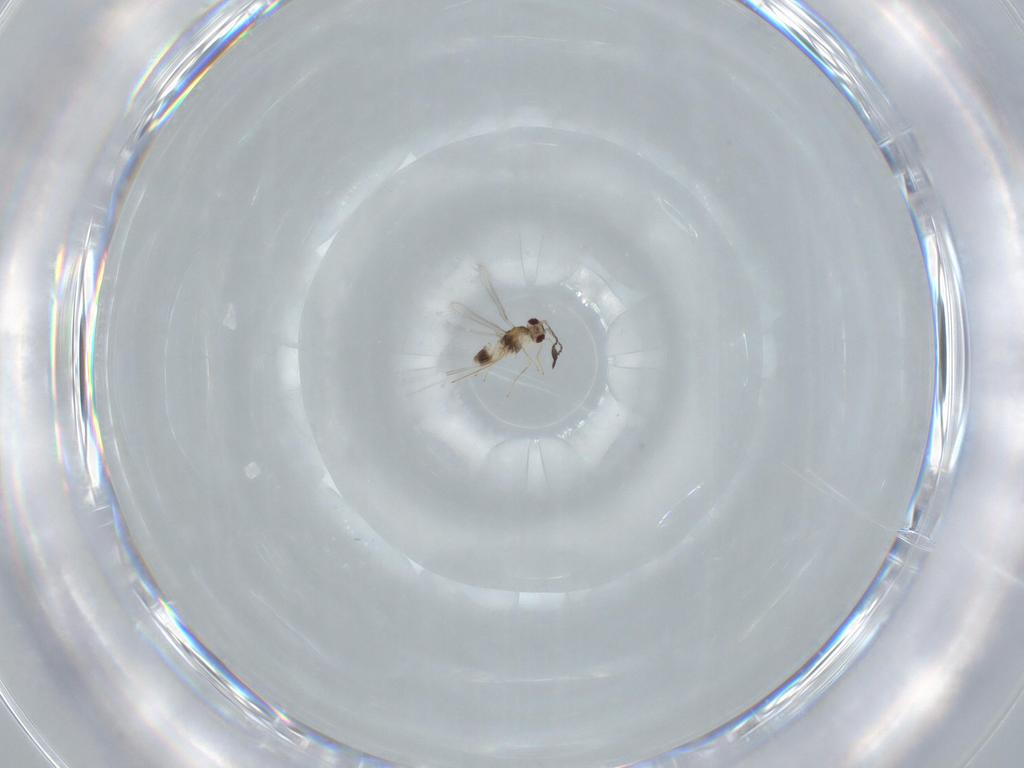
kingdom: Animalia
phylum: Arthropoda
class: Insecta
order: Hymenoptera
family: Mymaridae
